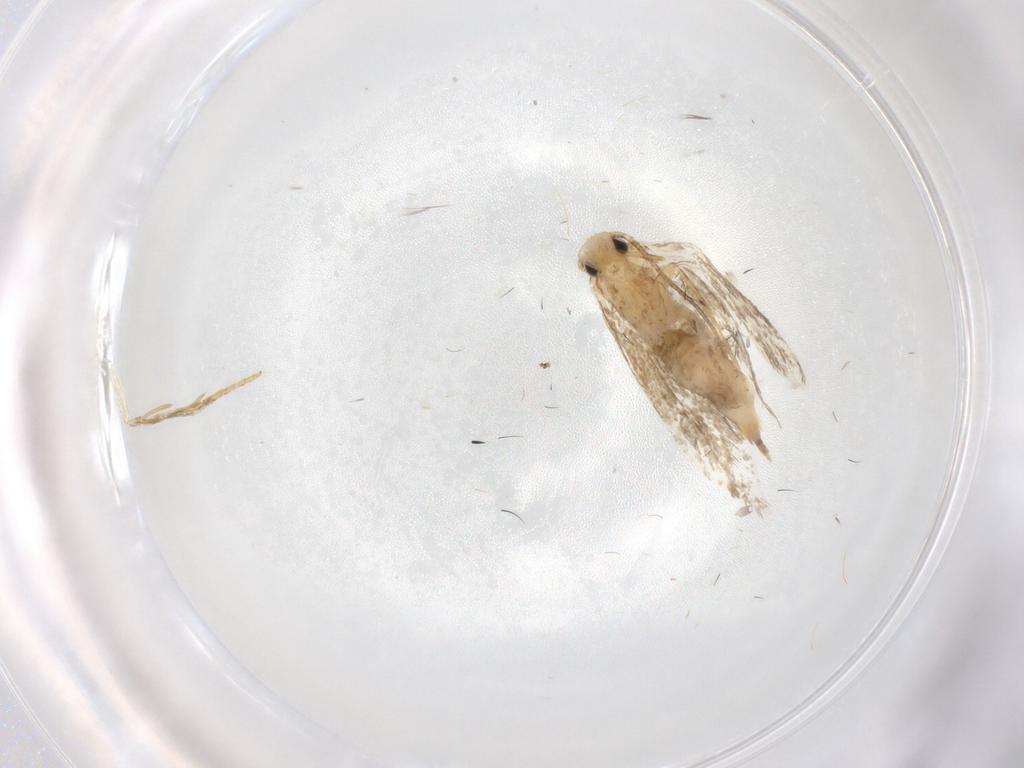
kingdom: Animalia
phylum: Arthropoda
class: Insecta
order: Lepidoptera
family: Tineidae
